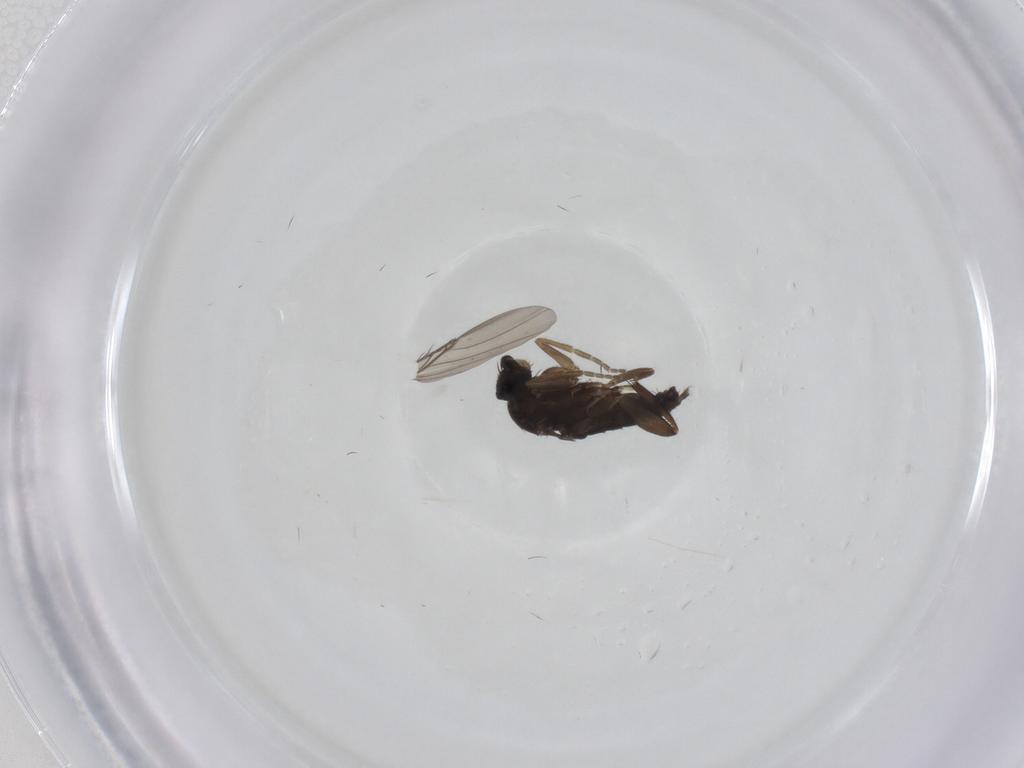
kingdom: Animalia
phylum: Arthropoda
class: Insecta
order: Diptera
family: Phoridae
